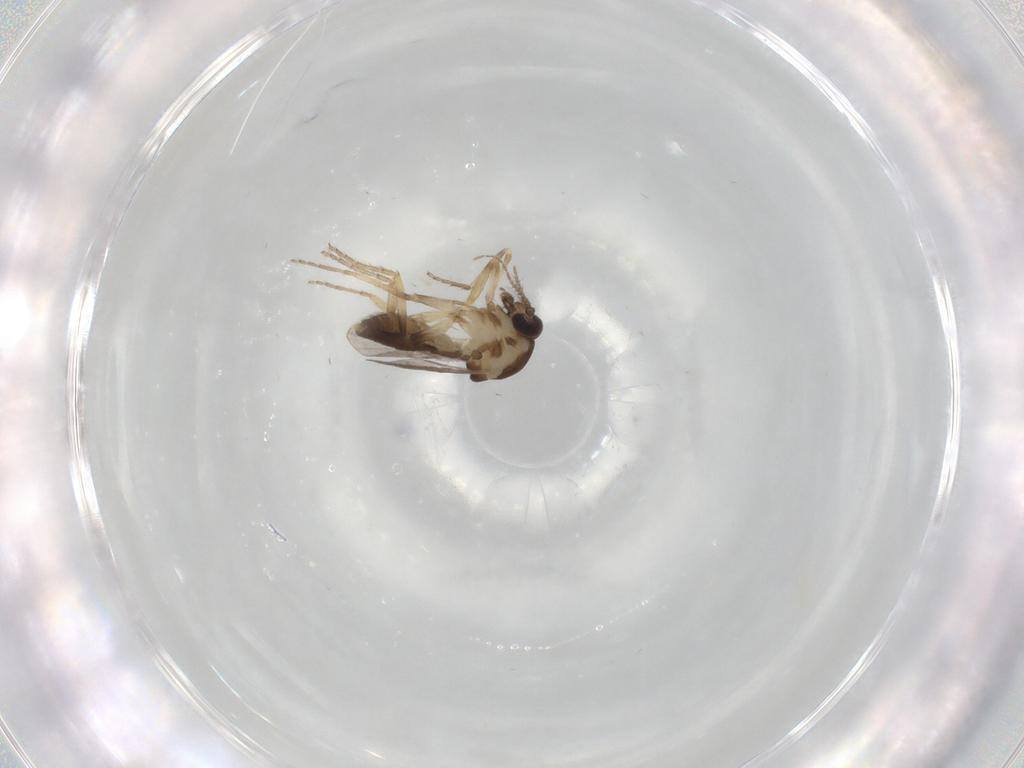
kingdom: Animalia
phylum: Arthropoda
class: Insecta
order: Diptera
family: Ceratopogonidae
